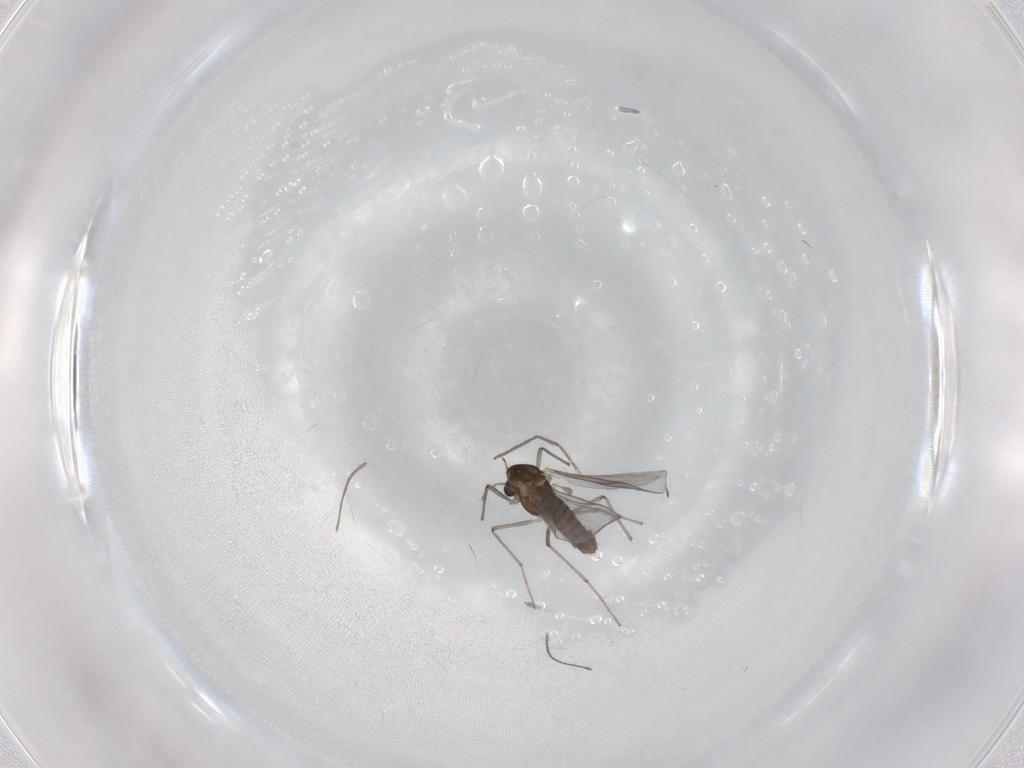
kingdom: Animalia
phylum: Arthropoda
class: Insecta
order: Diptera
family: Chironomidae
